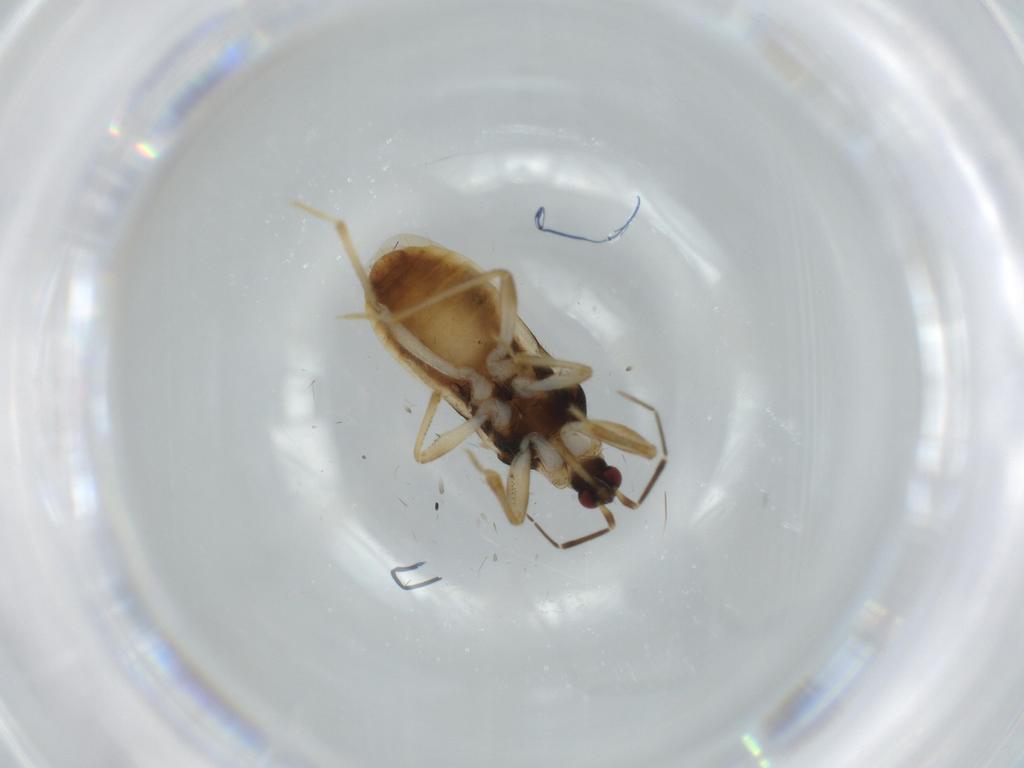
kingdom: Animalia
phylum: Arthropoda
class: Insecta
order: Hemiptera
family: Nabidae
